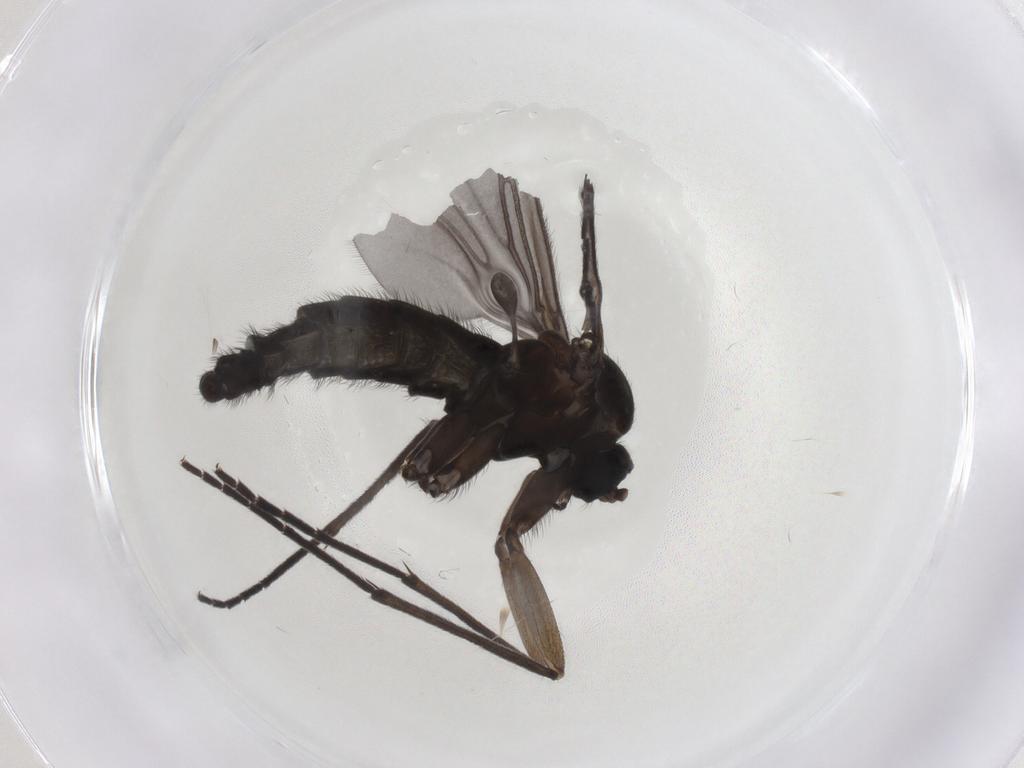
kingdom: Animalia
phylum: Arthropoda
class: Insecta
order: Diptera
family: Sciaridae
